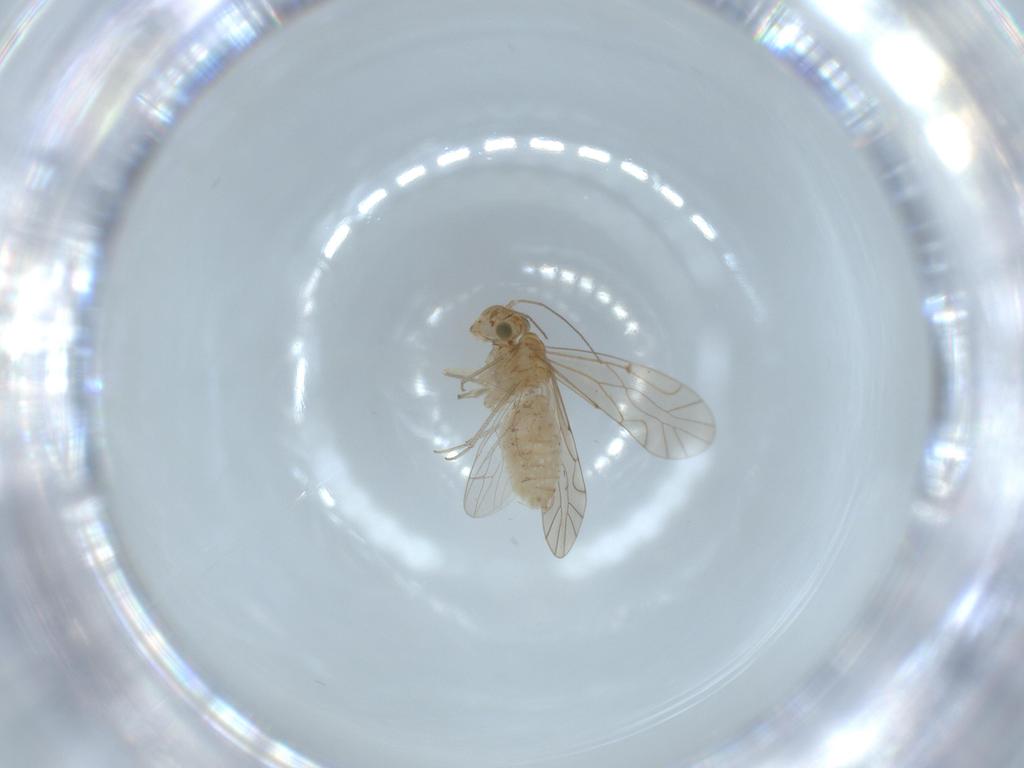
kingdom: Animalia
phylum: Arthropoda
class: Insecta
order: Psocodea
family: Lachesillidae
